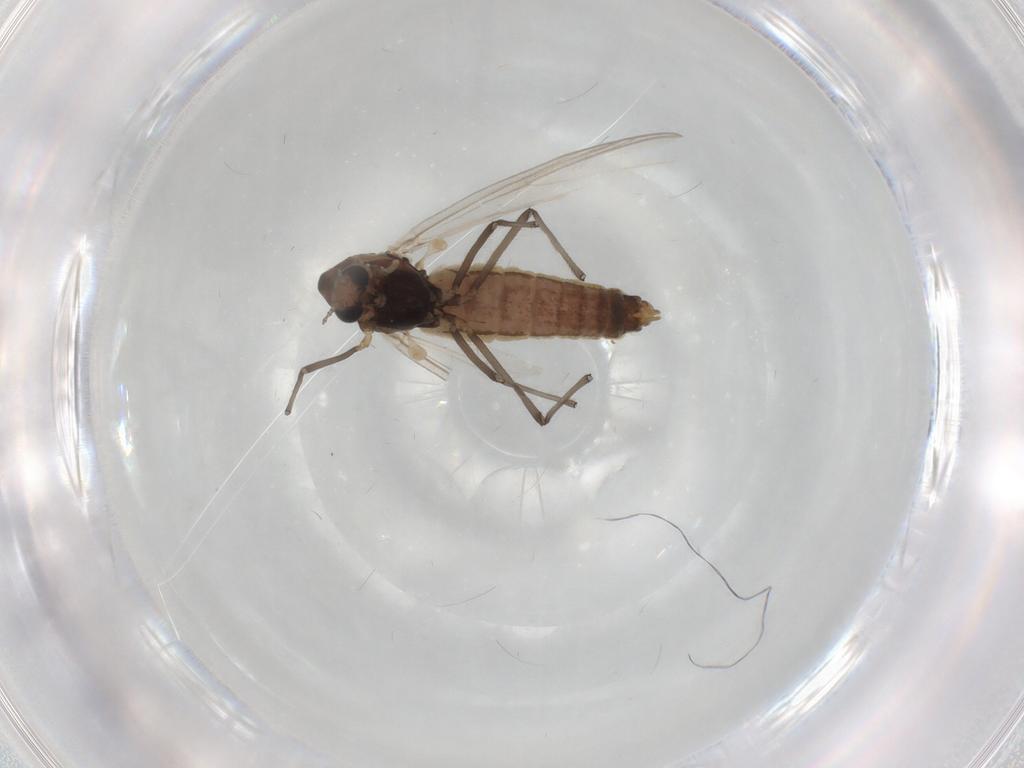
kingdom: Animalia
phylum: Arthropoda
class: Insecta
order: Diptera
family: Chironomidae
